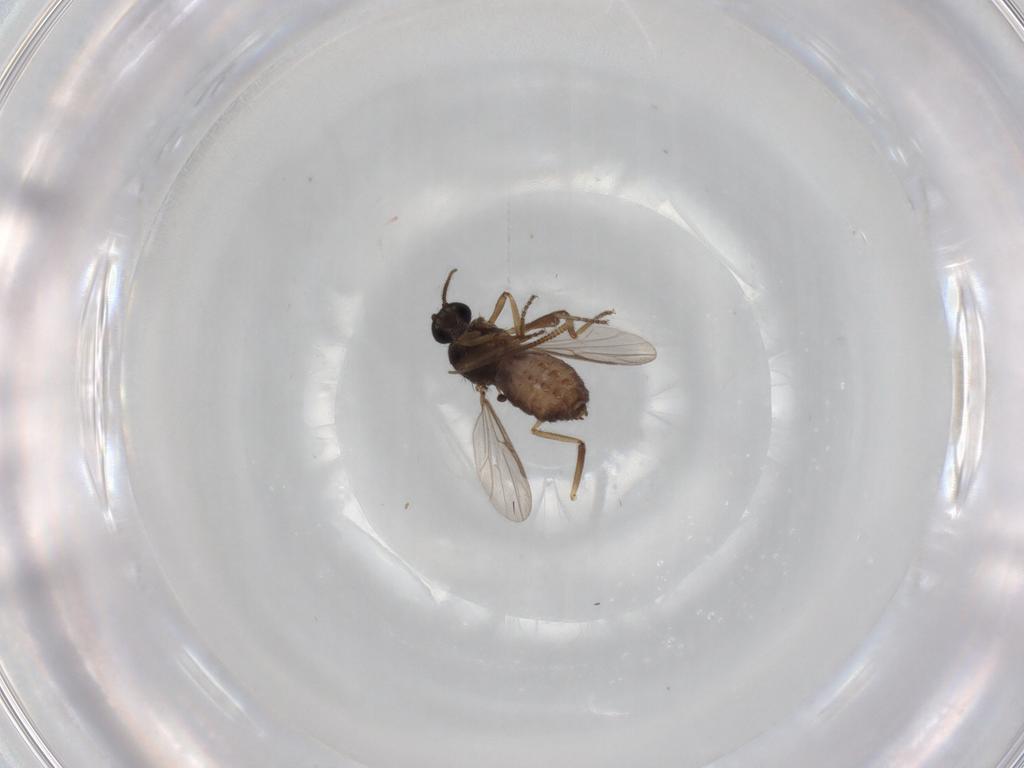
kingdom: Animalia
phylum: Arthropoda
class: Insecta
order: Diptera
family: Ceratopogonidae
